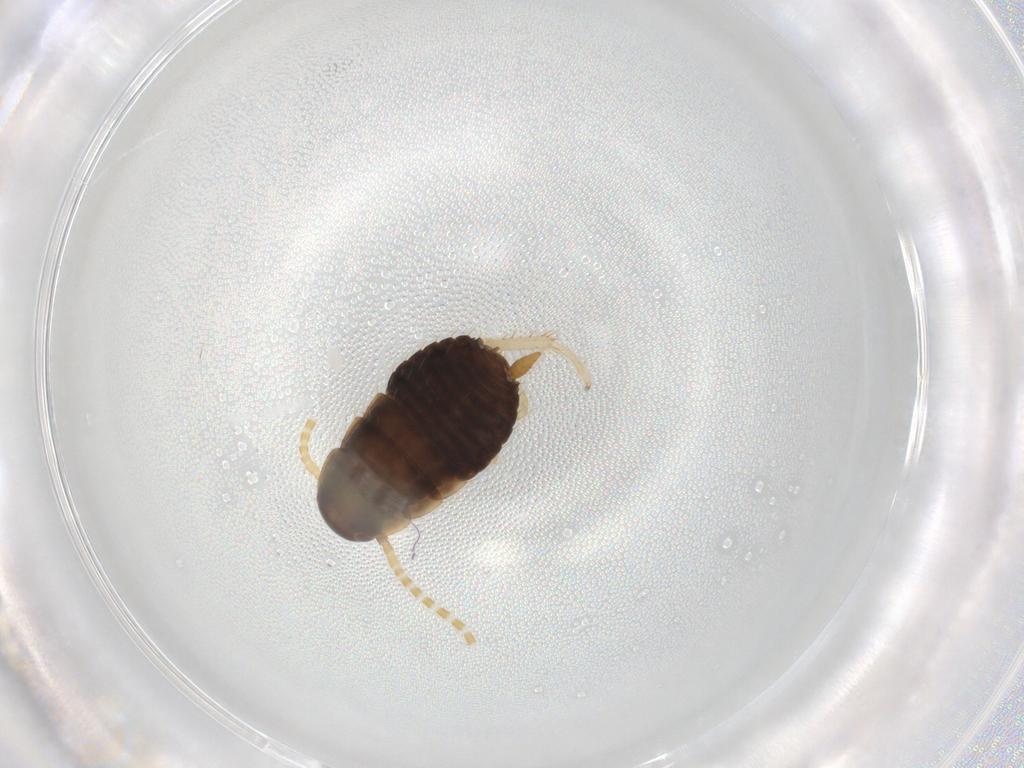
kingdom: Animalia
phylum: Arthropoda
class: Insecta
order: Blattodea
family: Ectobiidae
